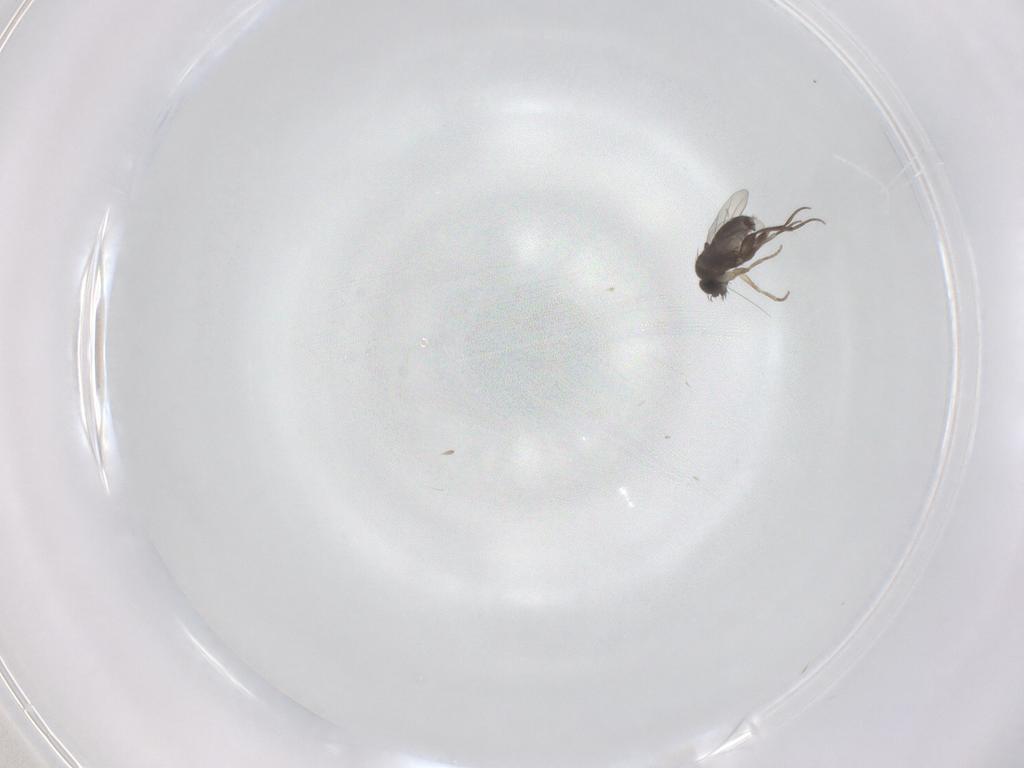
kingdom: Animalia
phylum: Arthropoda
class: Insecta
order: Diptera
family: Phoridae
